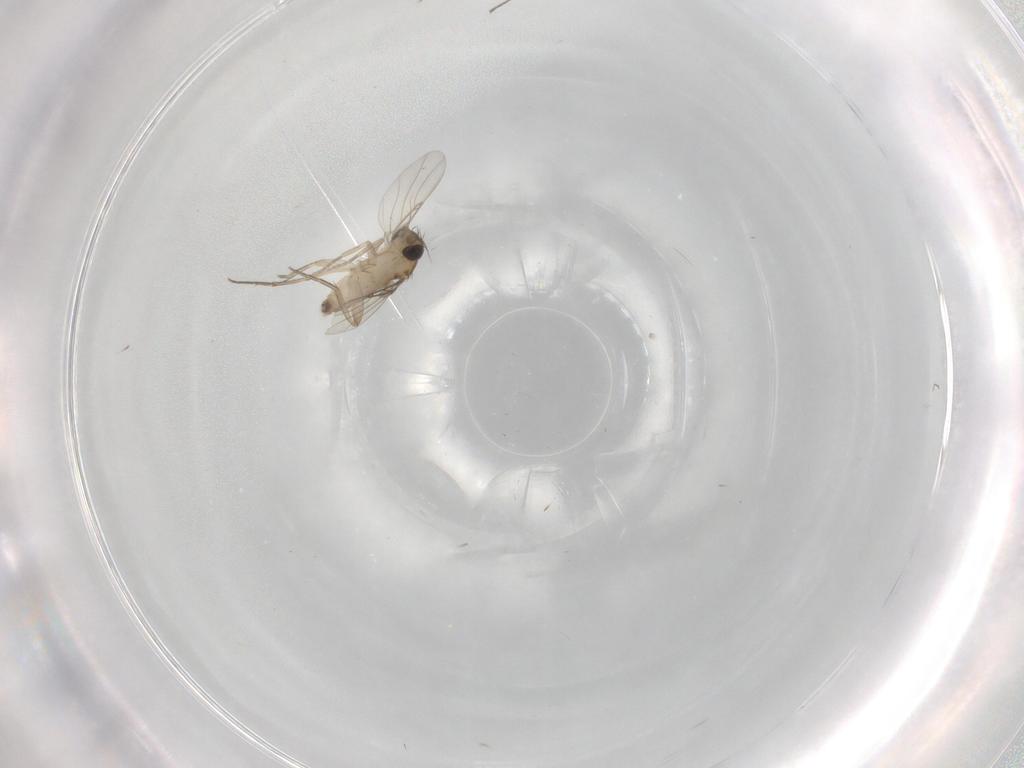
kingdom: Animalia
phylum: Arthropoda
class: Insecta
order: Diptera
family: Phoridae
